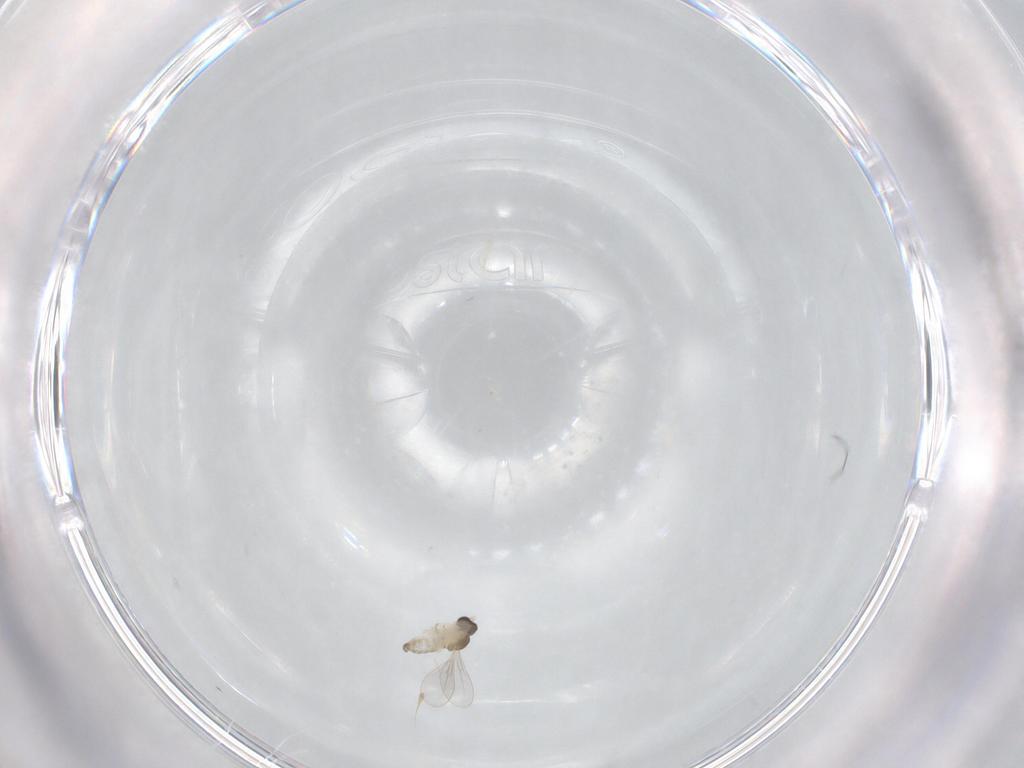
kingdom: Animalia
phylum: Arthropoda
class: Insecta
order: Diptera
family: Cecidomyiidae
